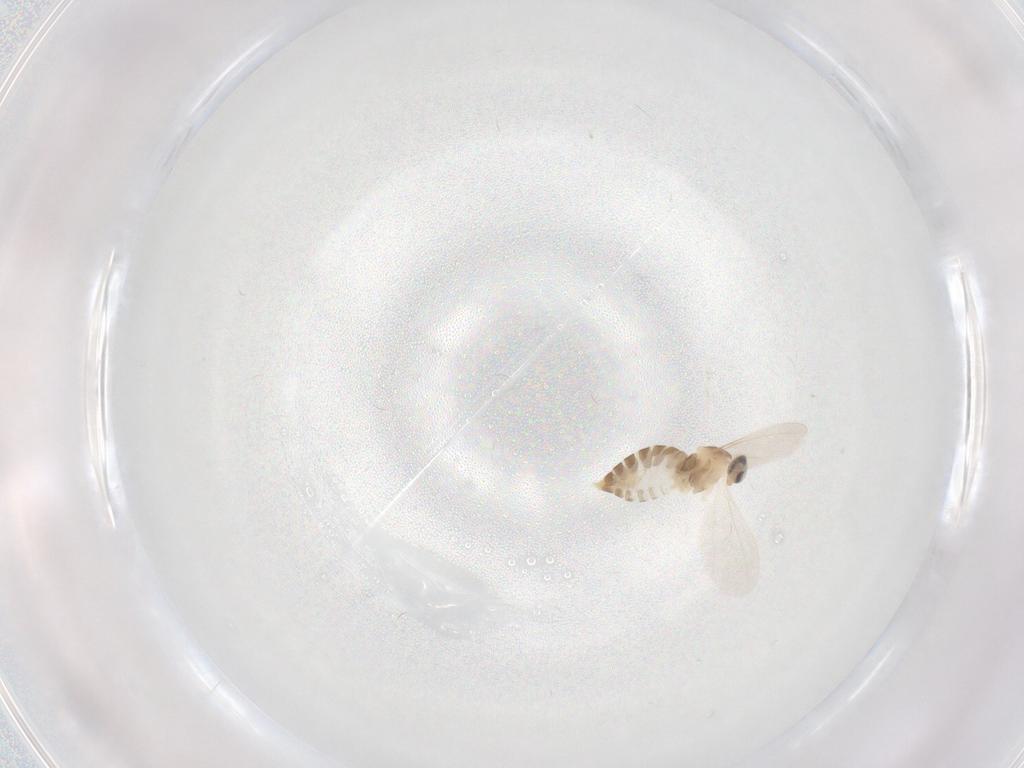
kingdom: Animalia
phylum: Arthropoda
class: Insecta
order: Diptera
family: Cecidomyiidae
